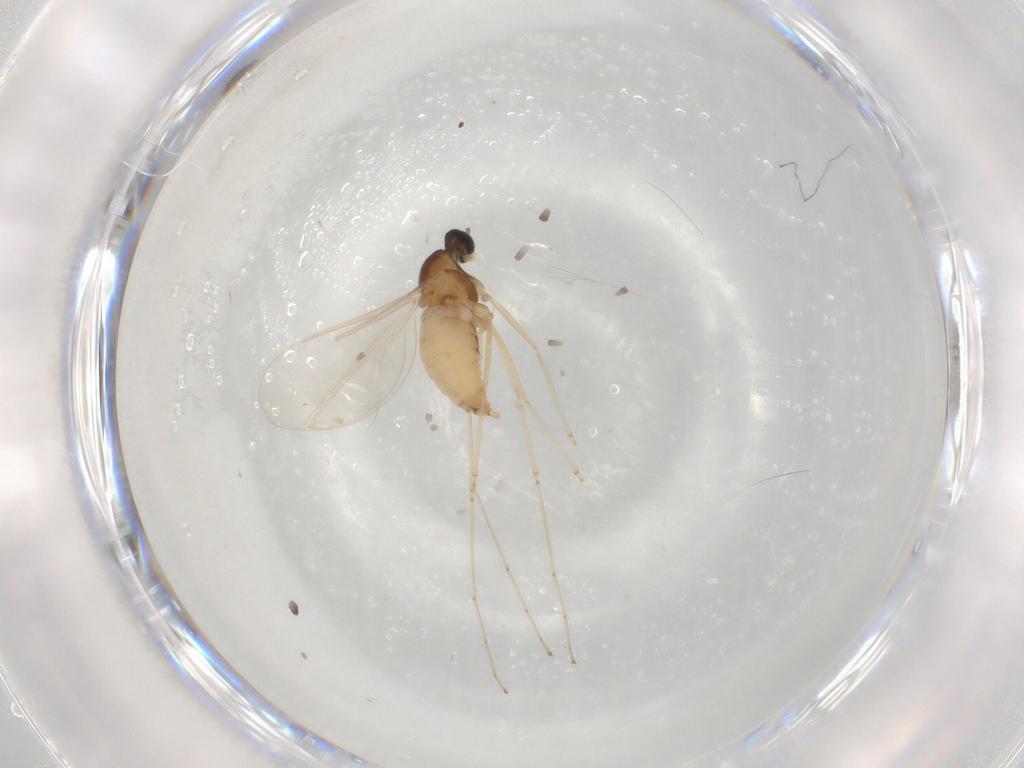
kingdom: Animalia
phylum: Arthropoda
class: Insecta
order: Diptera
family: Cecidomyiidae
